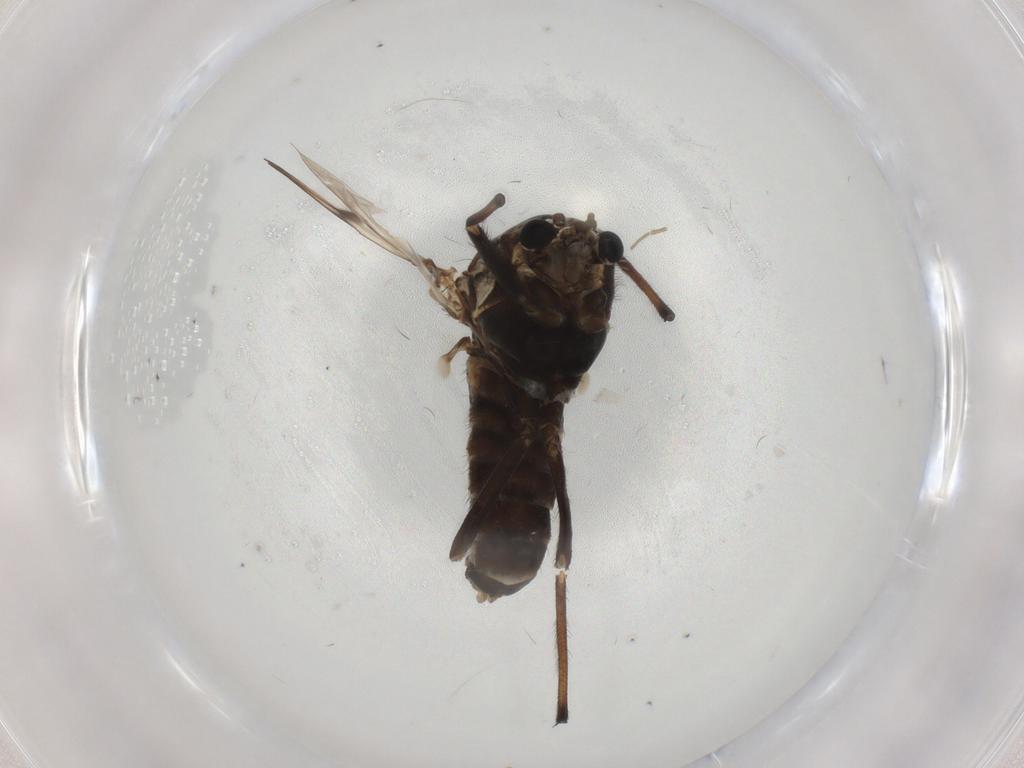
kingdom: Animalia
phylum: Arthropoda
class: Insecta
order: Diptera
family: Chironomidae
